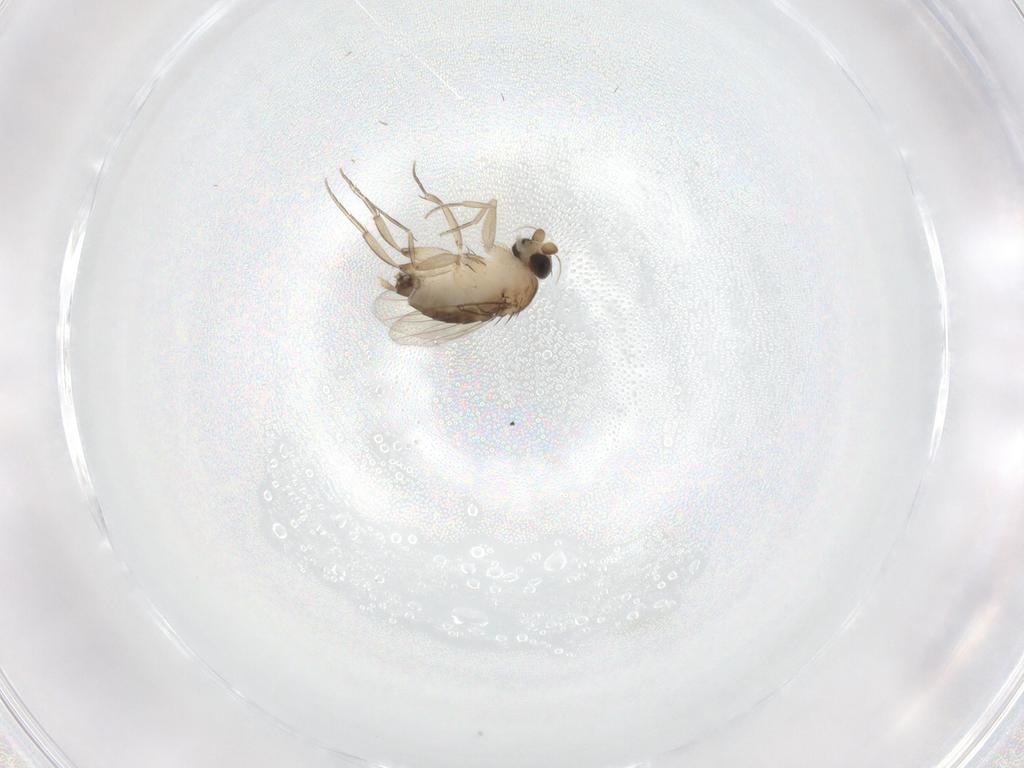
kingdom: Animalia
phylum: Arthropoda
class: Insecta
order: Diptera
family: Phoridae
